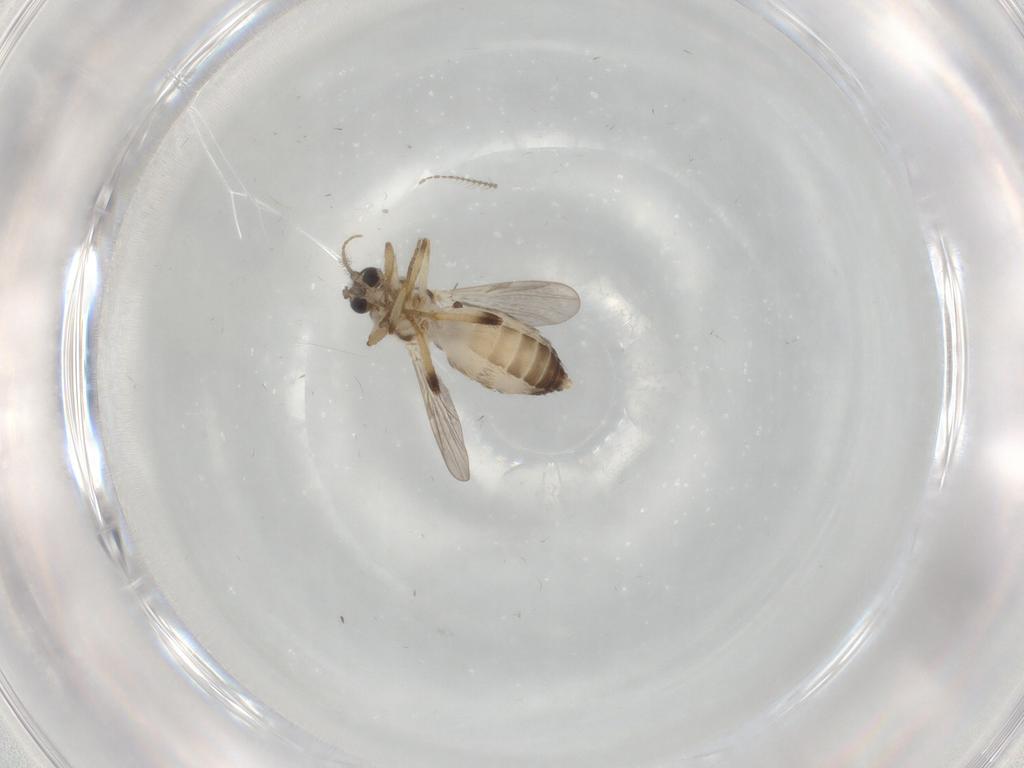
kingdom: Animalia
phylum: Arthropoda
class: Insecta
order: Diptera
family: Ceratopogonidae
